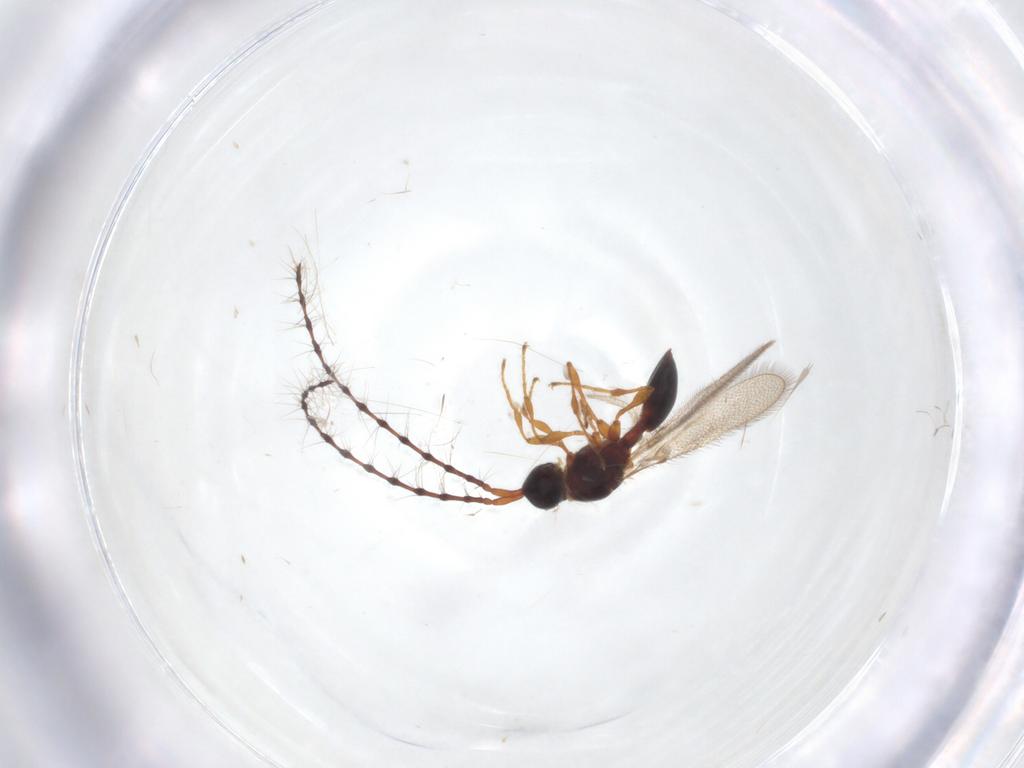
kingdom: Animalia
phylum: Arthropoda
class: Insecta
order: Hymenoptera
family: Diapriidae
